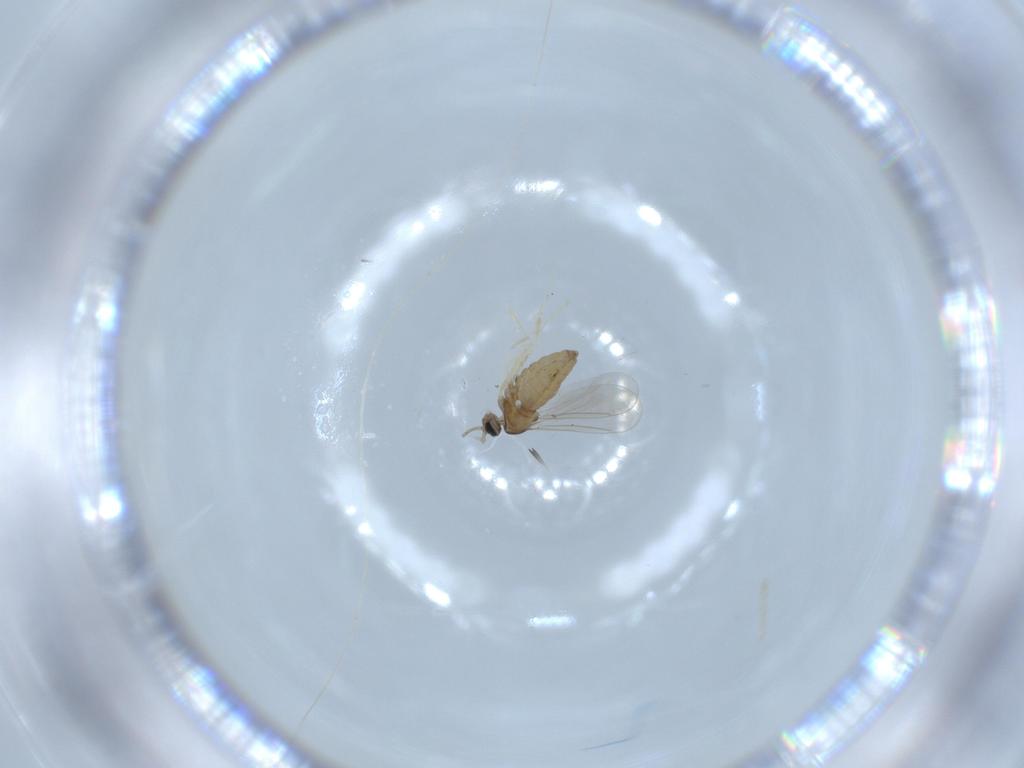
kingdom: Animalia
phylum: Arthropoda
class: Insecta
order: Diptera
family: Cecidomyiidae
